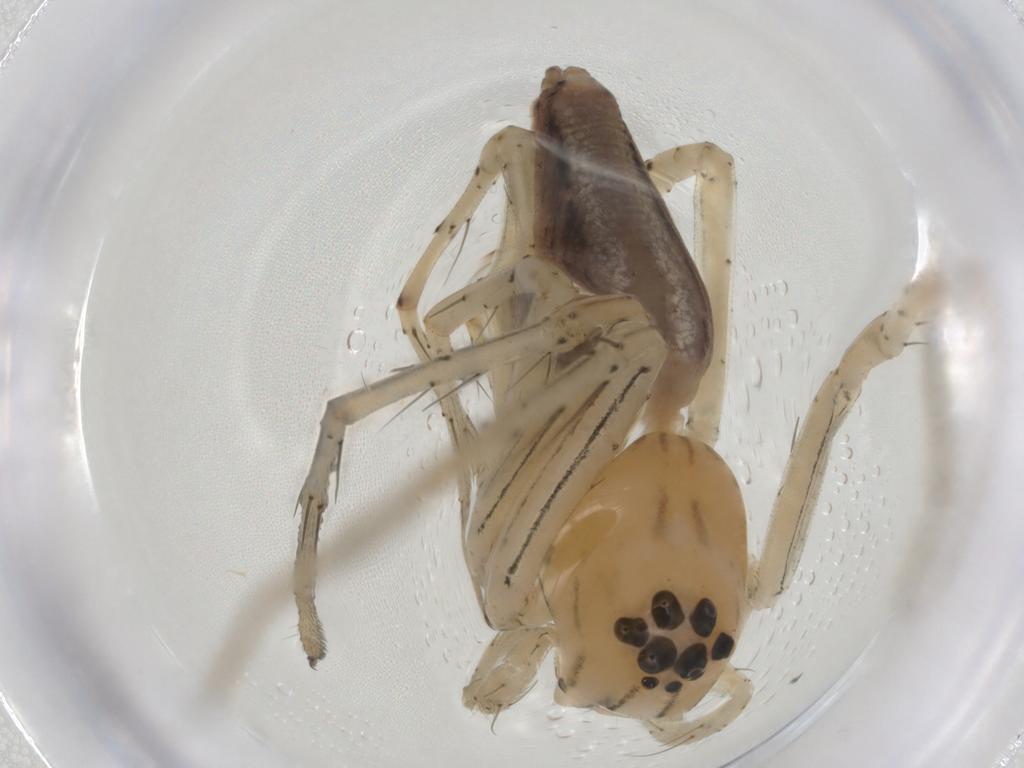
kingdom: Animalia
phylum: Arthropoda
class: Arachnida
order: Araneae
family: Oxyopidae
